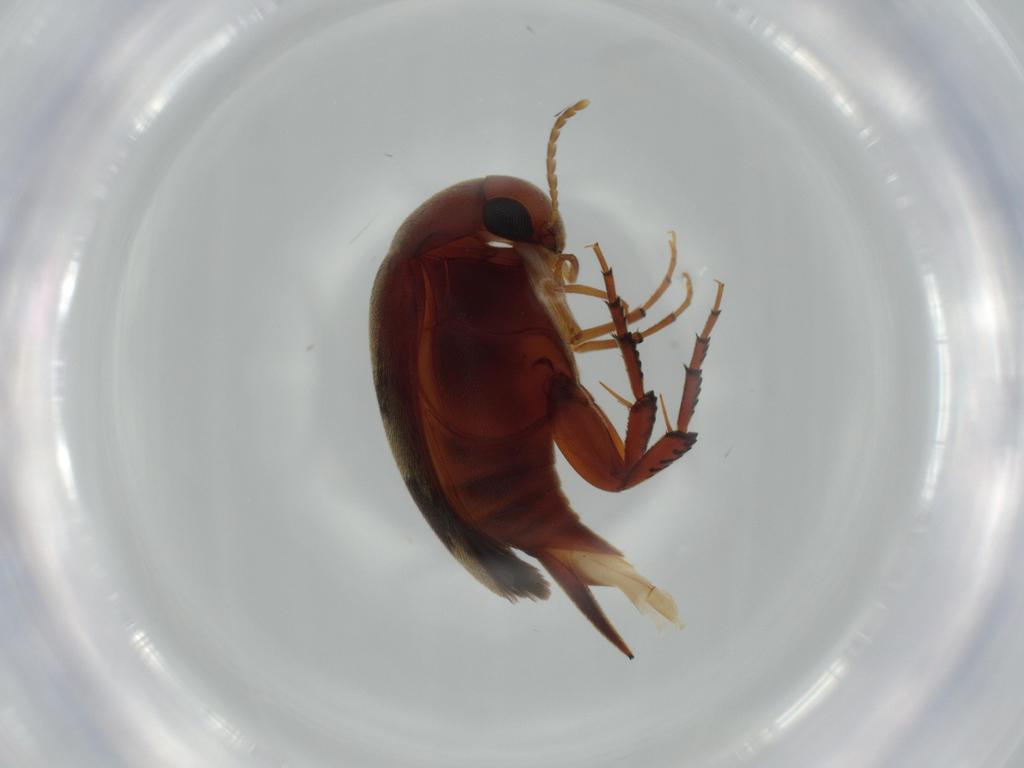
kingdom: Animalia
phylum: Arthropoda
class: Insecta
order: Coleoptera
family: Mordellidae
